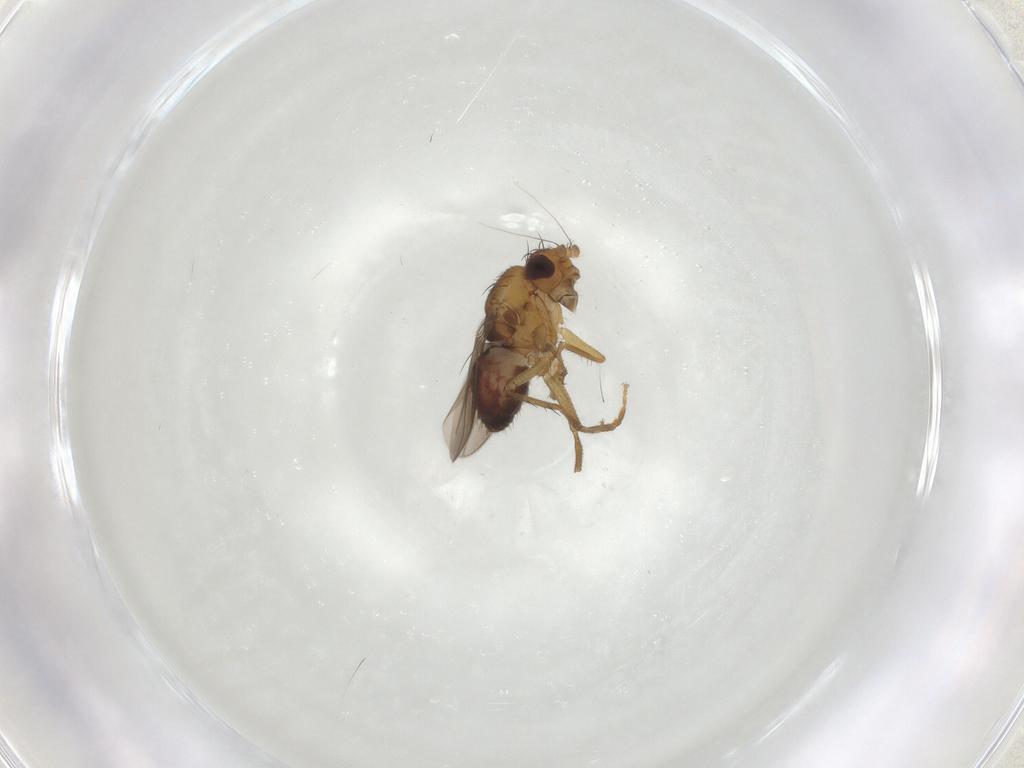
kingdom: Animalia
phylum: Arthropoda
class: Insecta
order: Diptera
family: Sphaeroceridae
